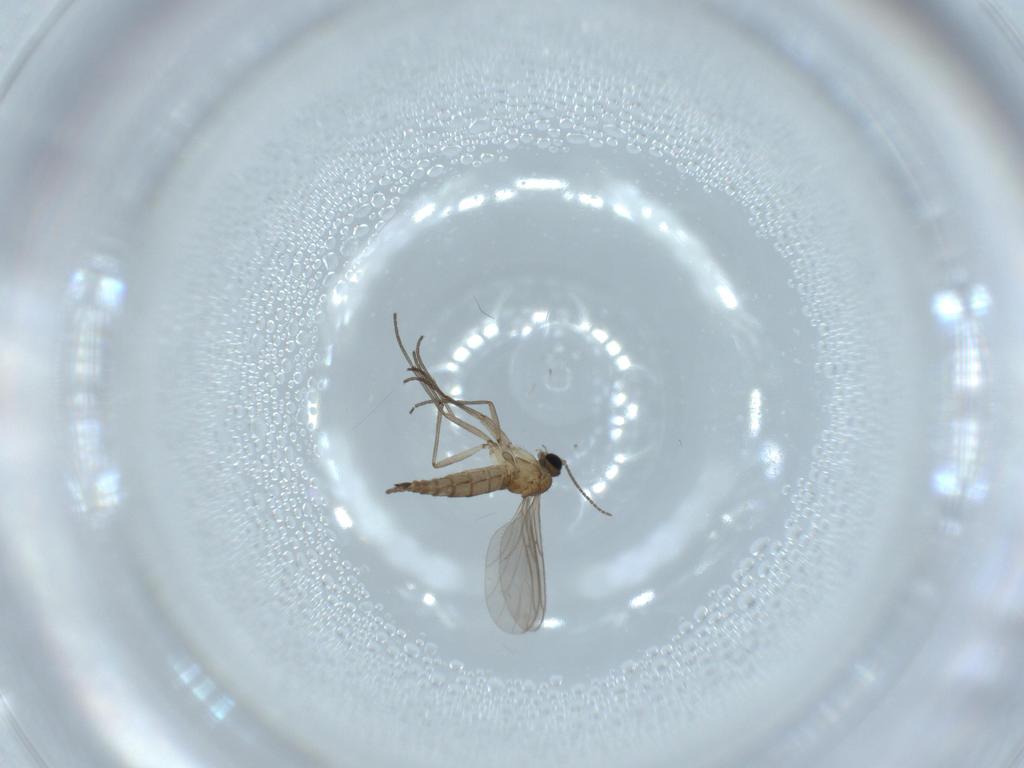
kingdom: Animalia
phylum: Arthropoda
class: Insecta
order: Diptera
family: Sciaridae
